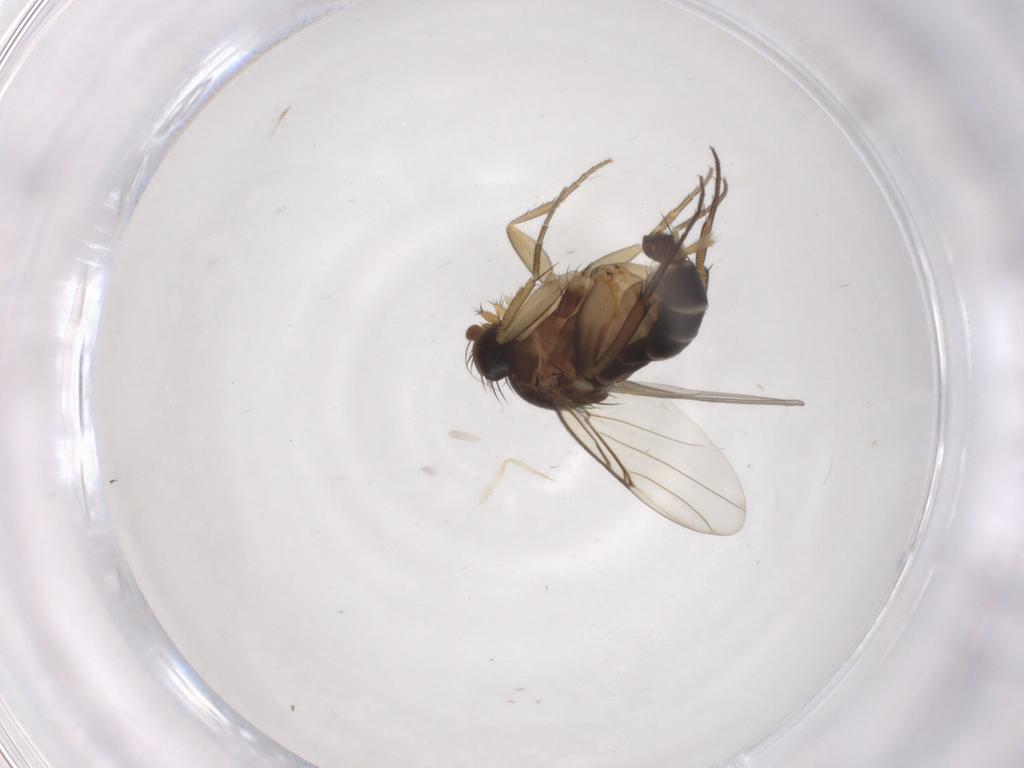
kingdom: Animalia
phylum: Arthropoda
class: Insecta
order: Diptera
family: Phoridae
